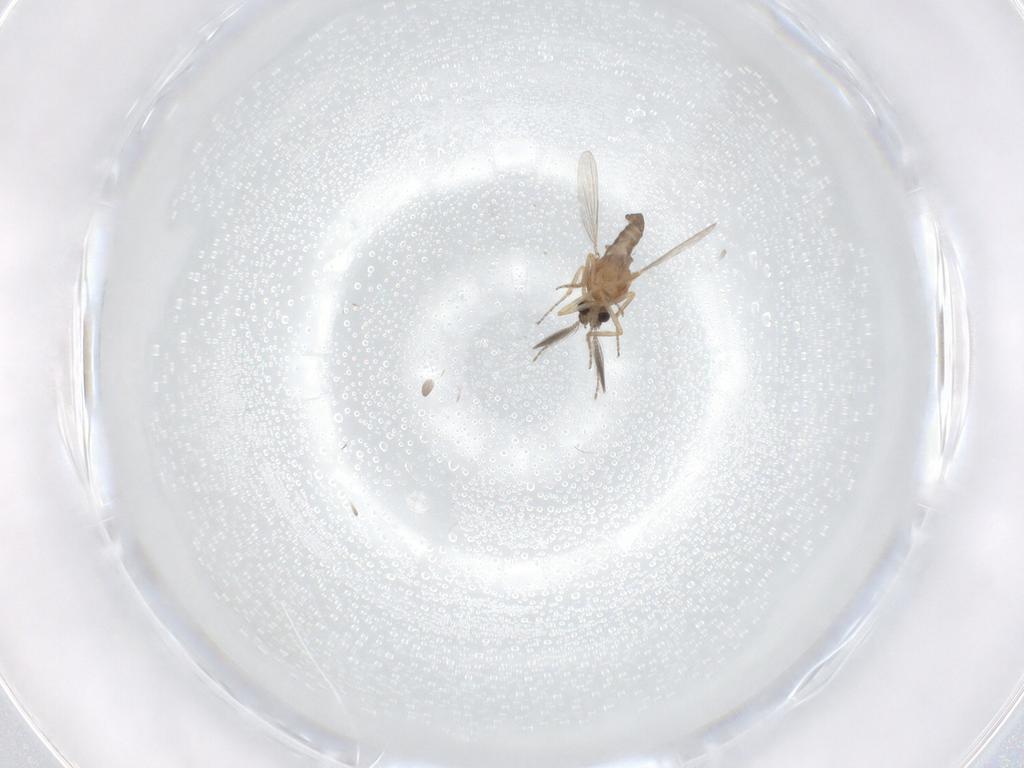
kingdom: Animalia
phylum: Arthropoda
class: Insecta
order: Diptera
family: Ceratopogonidae
